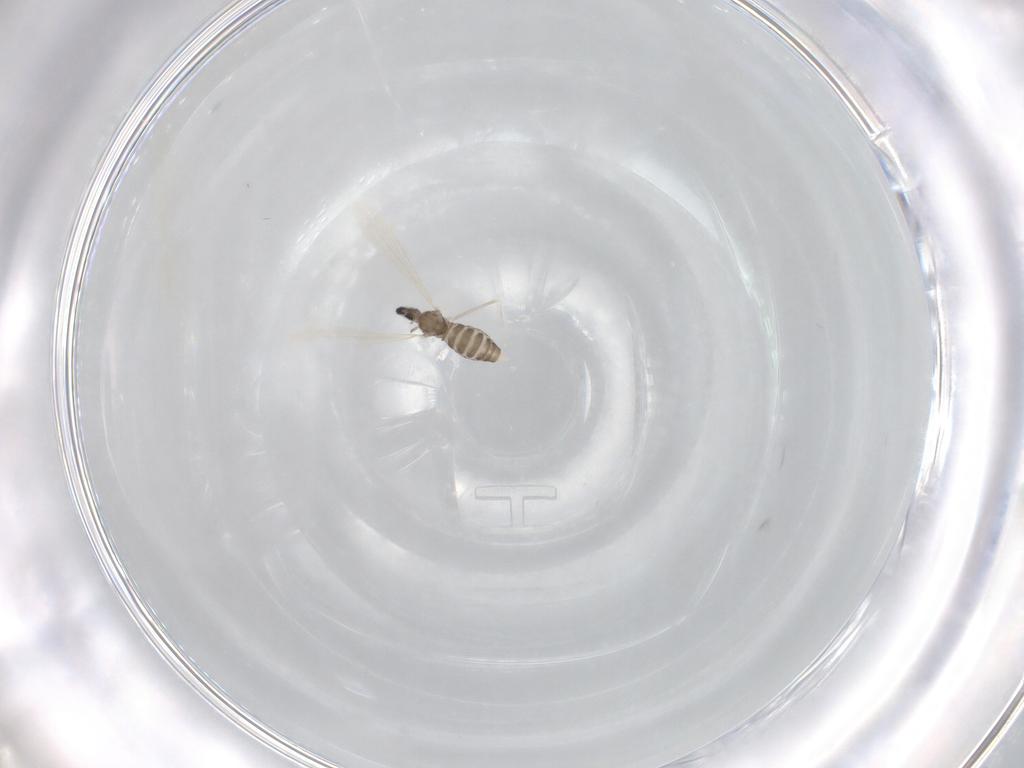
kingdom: Animalia
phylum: Arthropoda
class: Insecta
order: Diptera
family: Cecidomyiidae
